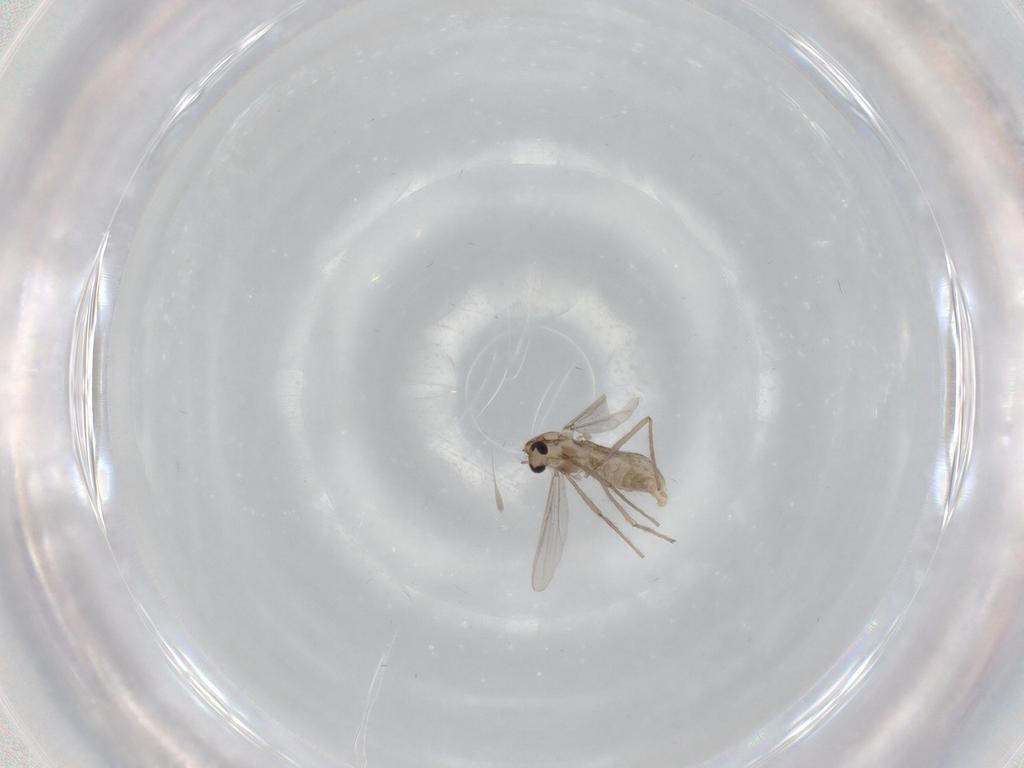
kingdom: Animalia
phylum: Arthropoda
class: Insecta
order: Diptera
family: Chironomidae
